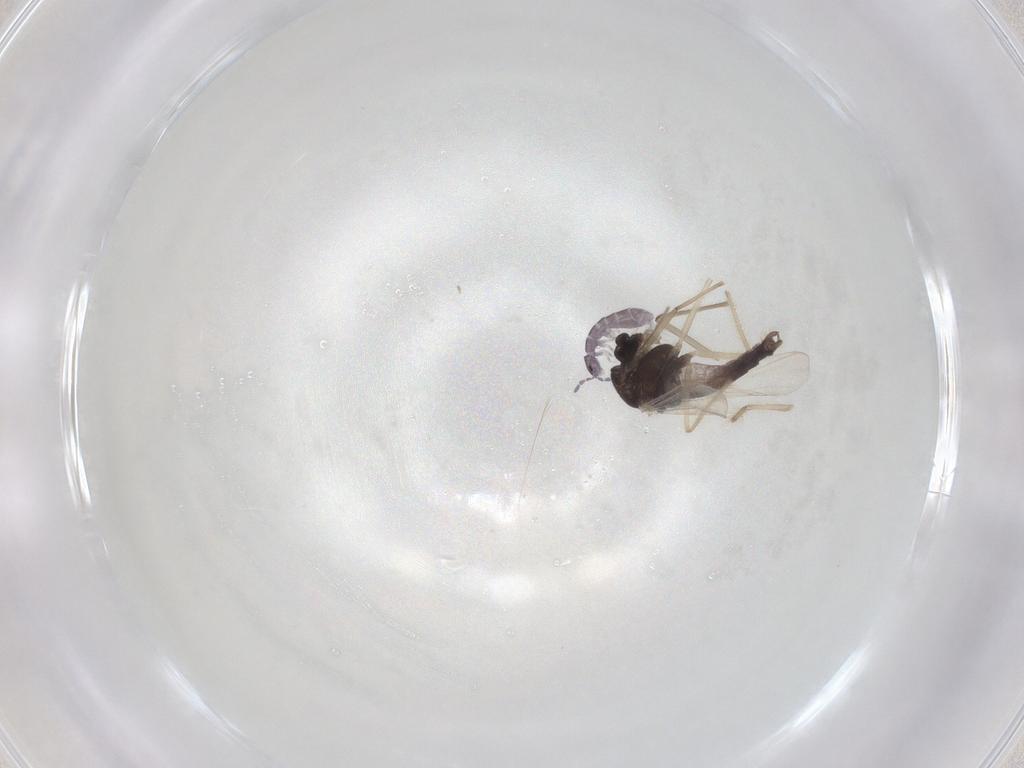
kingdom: Animalia
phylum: Arthropoda
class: Insecta
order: Diptera
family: Chironomidae
